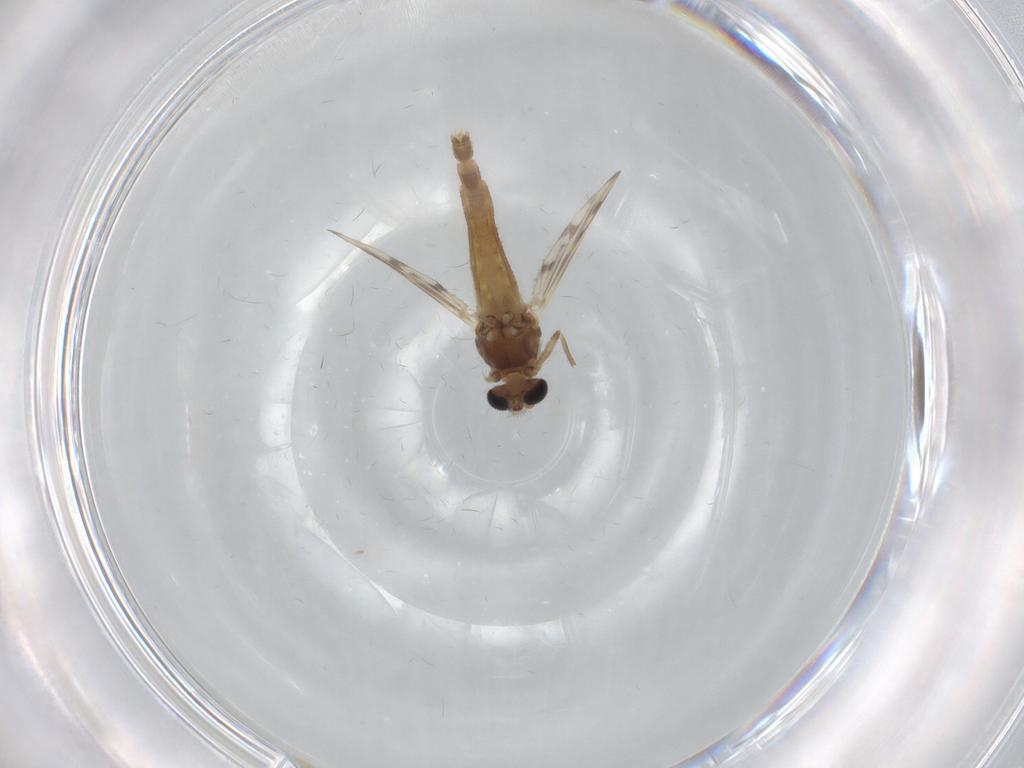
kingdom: Animalia
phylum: Arthropoda
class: Insecta
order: Diptera
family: Chironomidae
